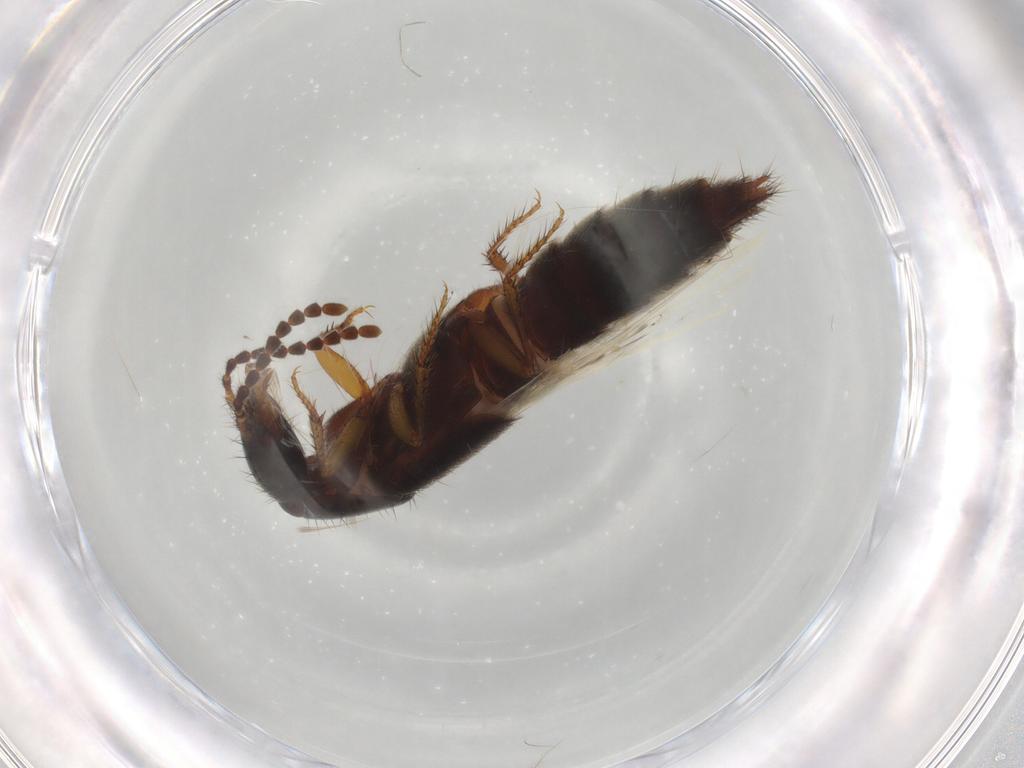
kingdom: Animalia
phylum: Arthropoda
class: Insecta
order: Coleoptera
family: Staphylinidae
